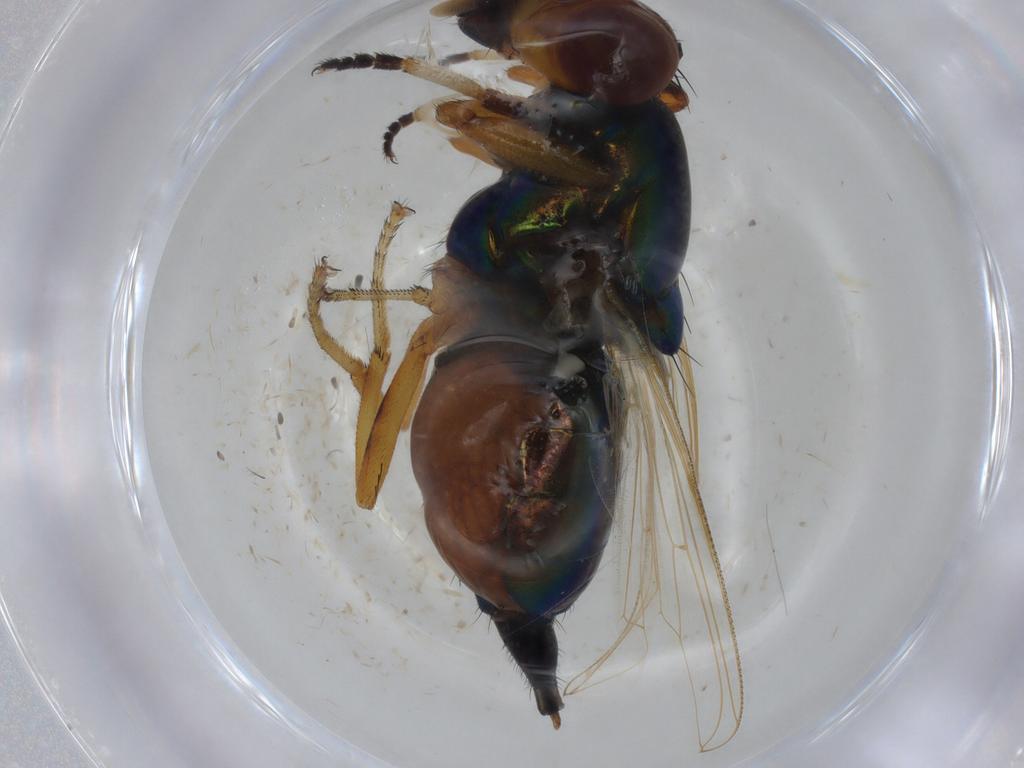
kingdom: Animalia
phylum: Arthropoda
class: Insecta
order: Diptera
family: Ulidiidae
